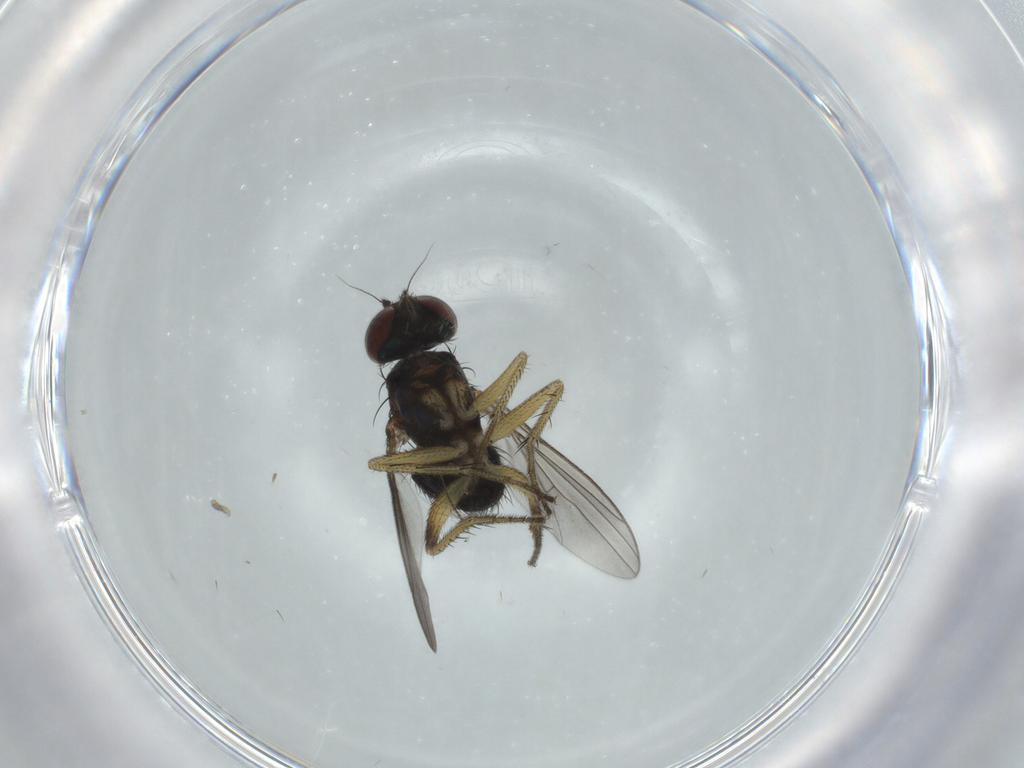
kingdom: Animalia
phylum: Arthropoda
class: Insecta
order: Diptera
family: Dolichopodidae
